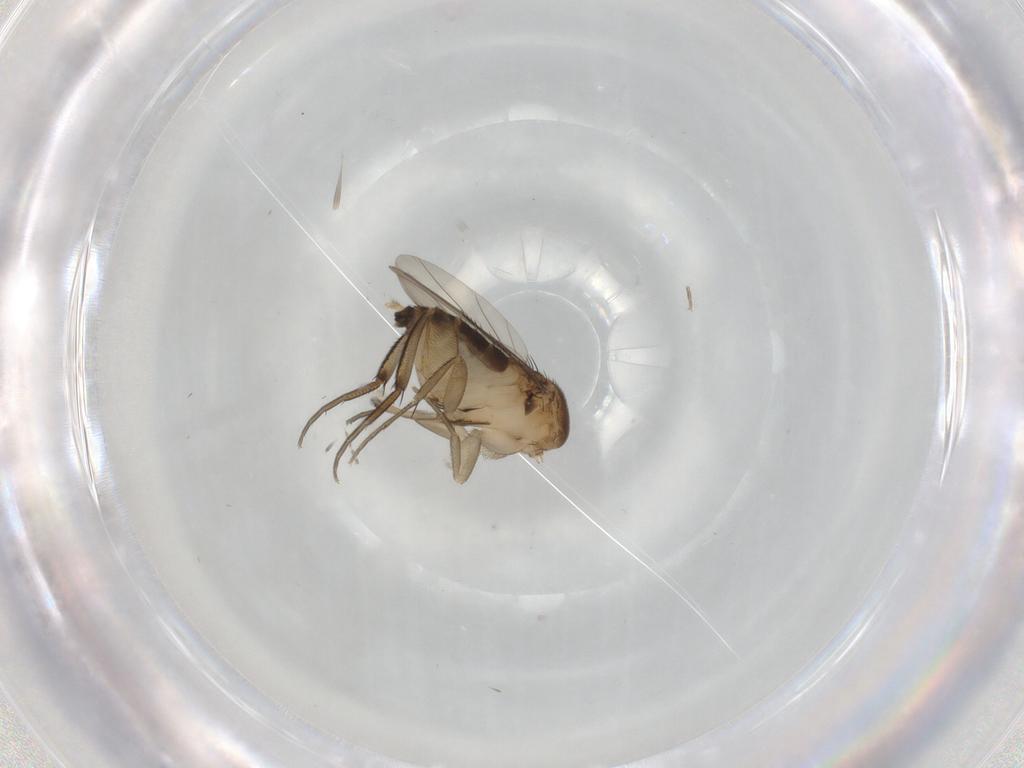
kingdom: Animalia
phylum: Arthropoda
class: Insecta
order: Diptera
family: Phoridae
